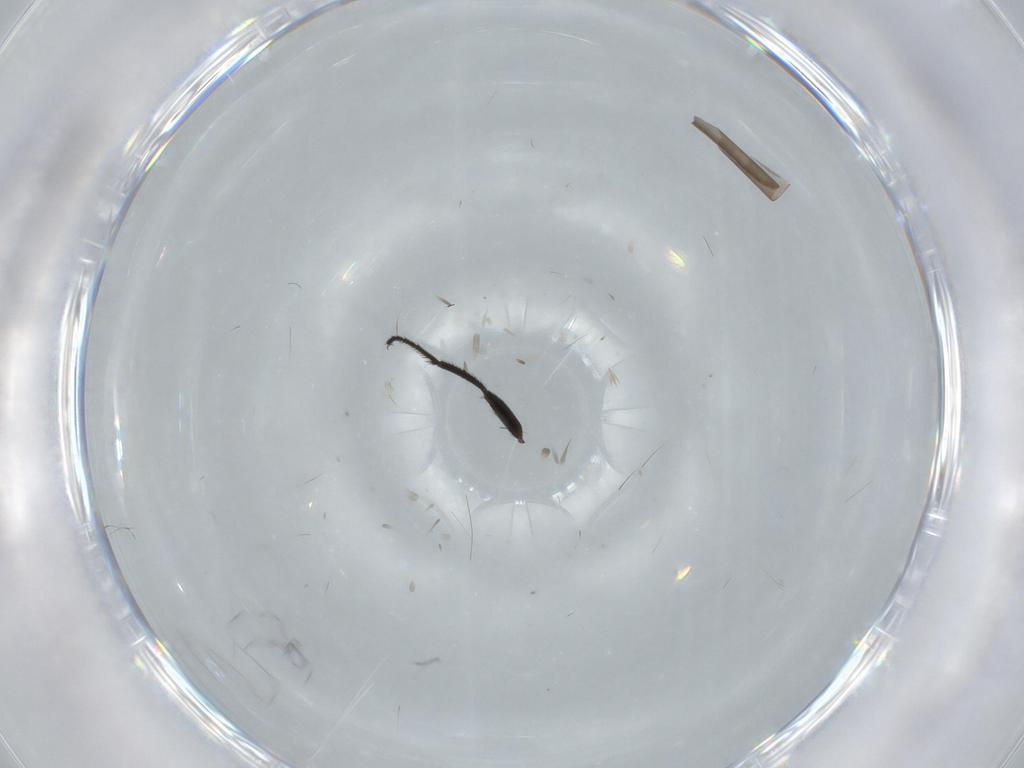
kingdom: Animalia
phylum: Arthropoda
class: Insecta
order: Diptera
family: Milichiidae
